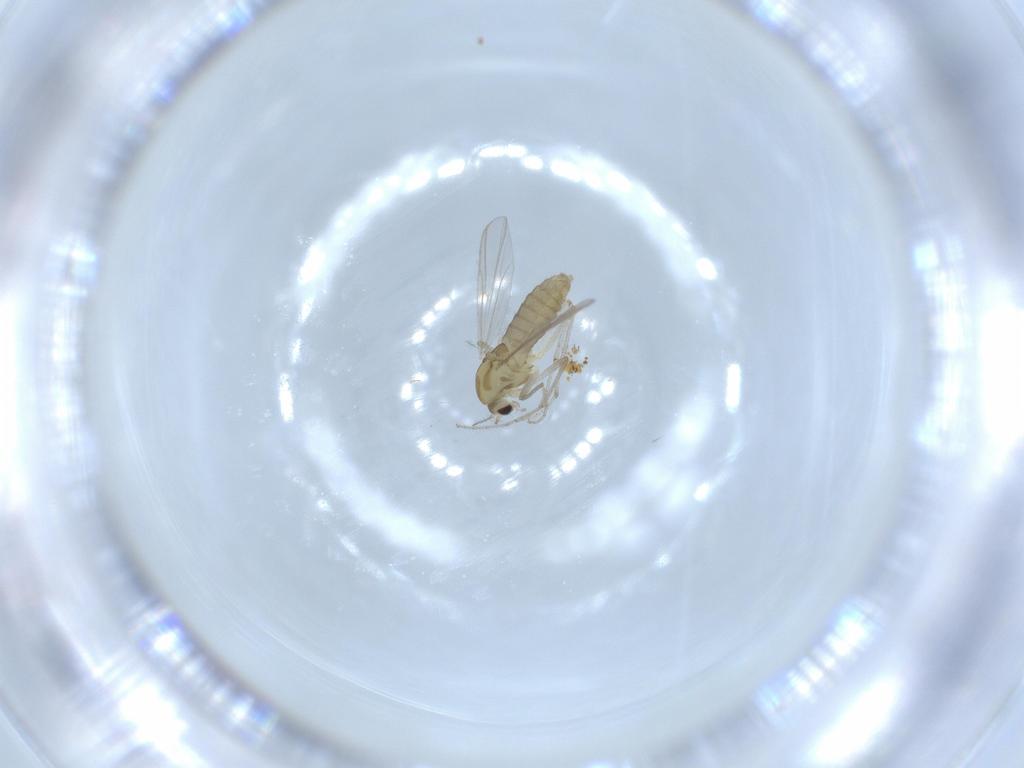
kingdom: Animalia
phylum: Arthropoda
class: Insecta
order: Diptera
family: Chironomidae
